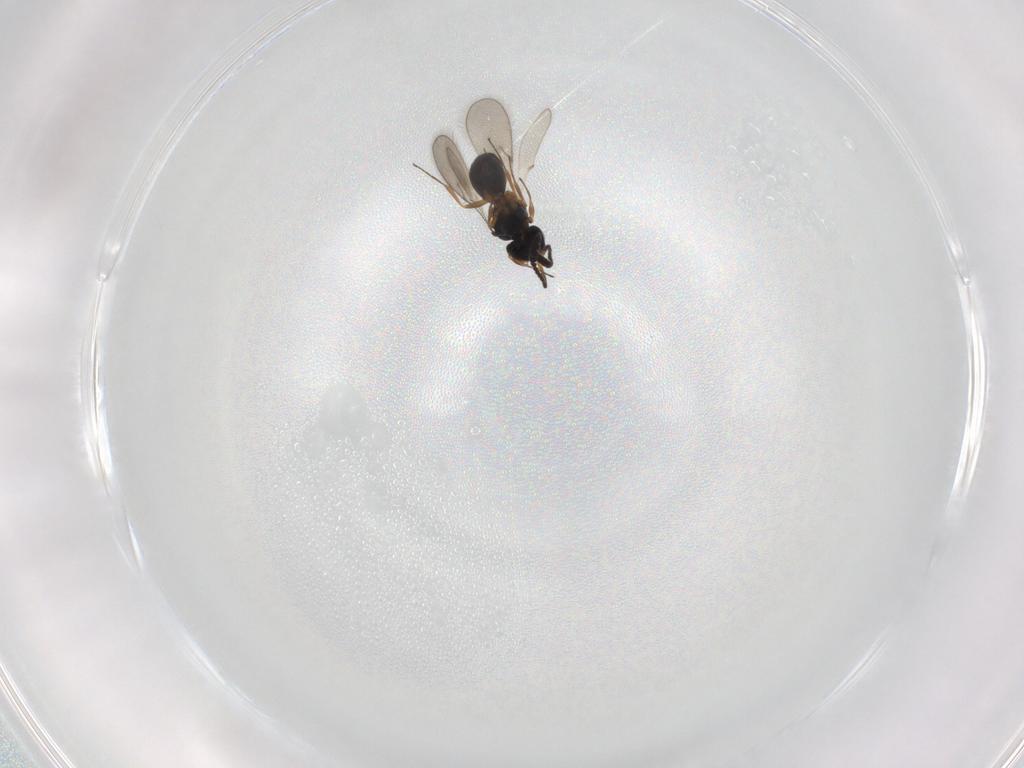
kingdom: Animalia
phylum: Arthropoda
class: Insecta
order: Hymenoptera
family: Scelionidae
